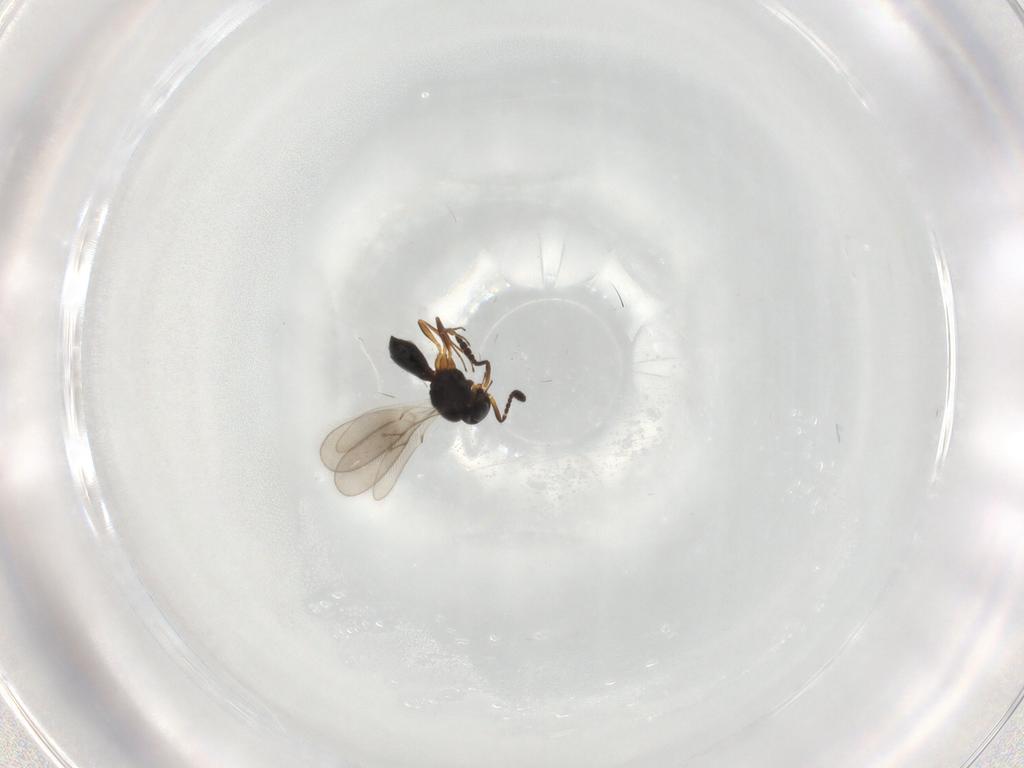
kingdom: Animalia
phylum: Arthropoda
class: Insecta
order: Hymenoptera
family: Scelionidae
